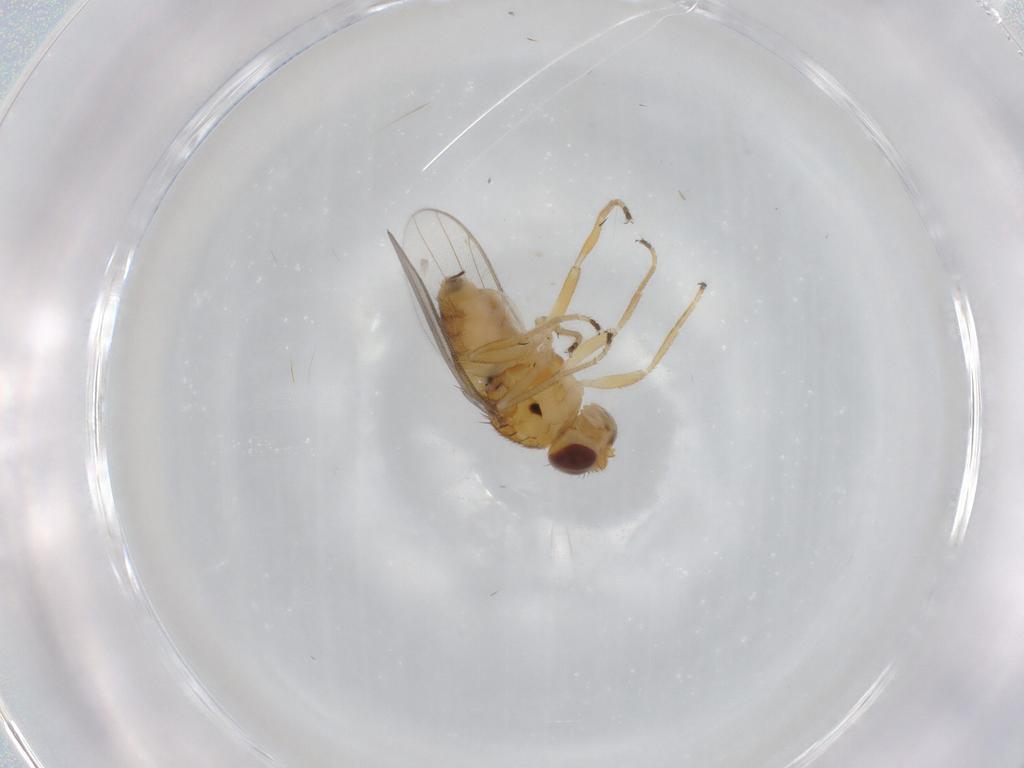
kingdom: Animalia
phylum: Arthropoda
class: Insecta
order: Diptera
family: Chloropidae
